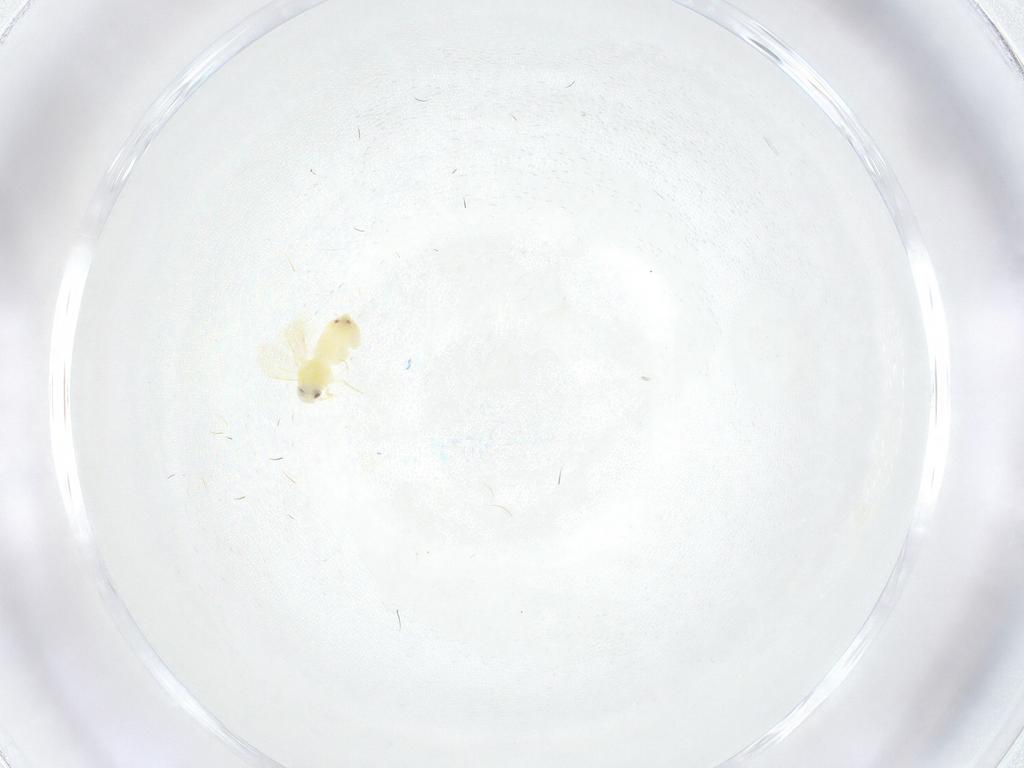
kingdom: Animalia
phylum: Arthropoda
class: Insecta
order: Hemiptera
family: Aleyrodidae
